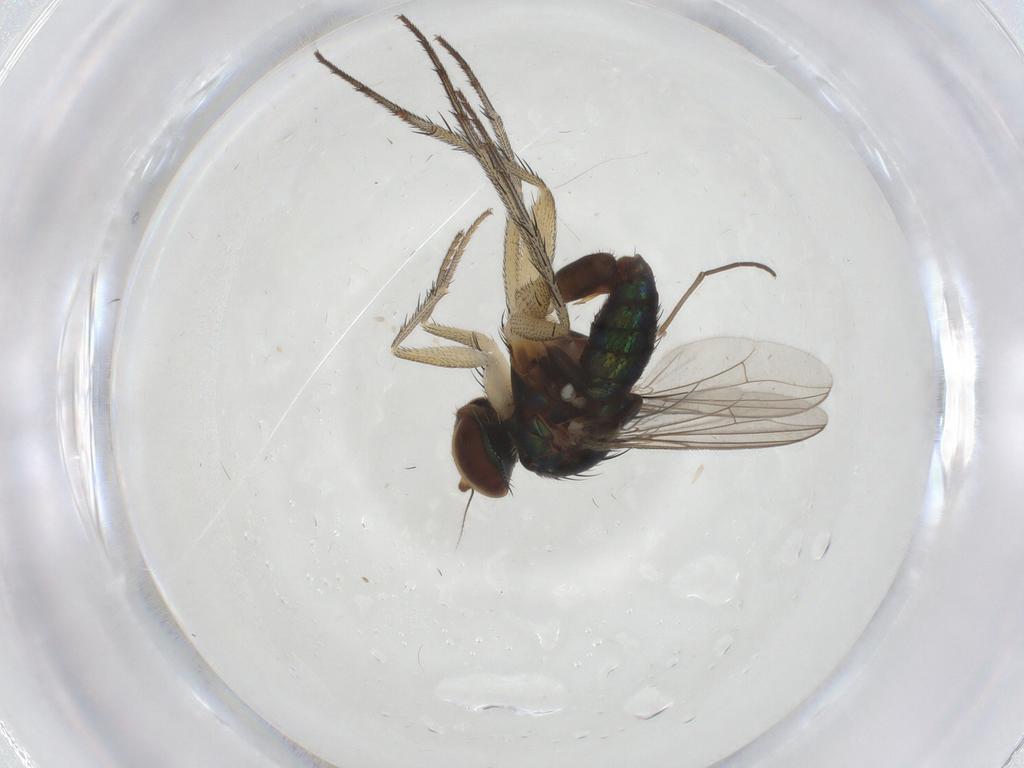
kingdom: Animalia
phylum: Arthropoda
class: Insecta
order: Diptera
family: Dolichopodidae
